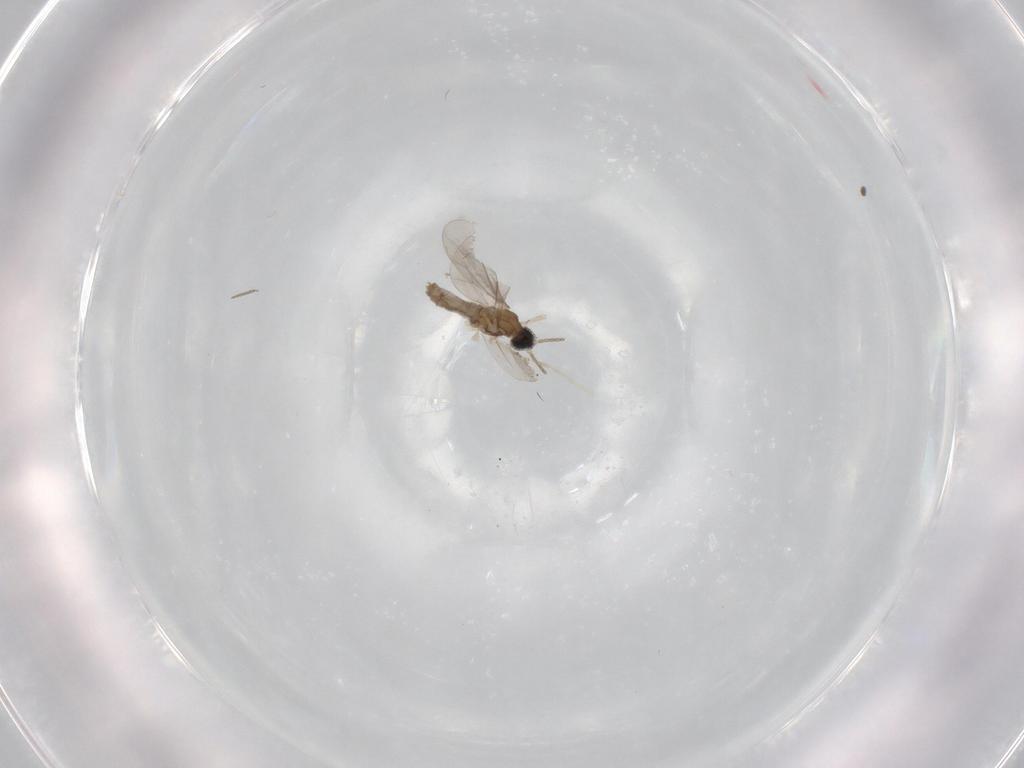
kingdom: Animalia
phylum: Arthropoda
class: Insecta
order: Diptera
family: Cecidomyiidae
